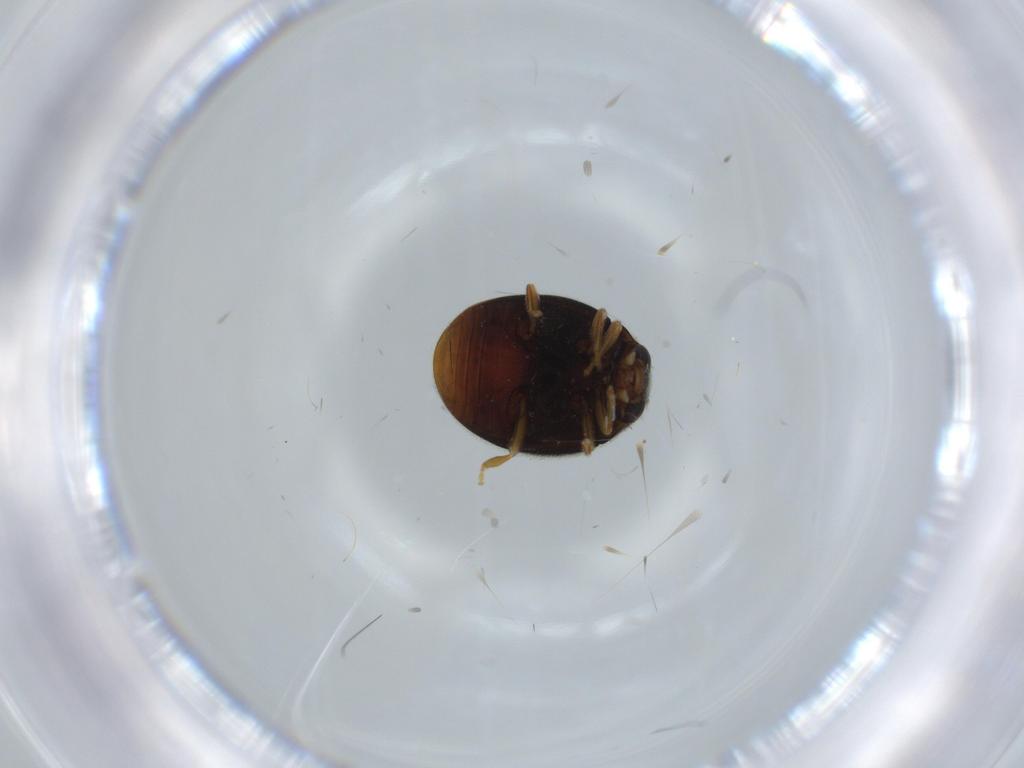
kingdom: Animalia
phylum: Arthropoda
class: Insecta
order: Coleoptera
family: Coccinellidae
